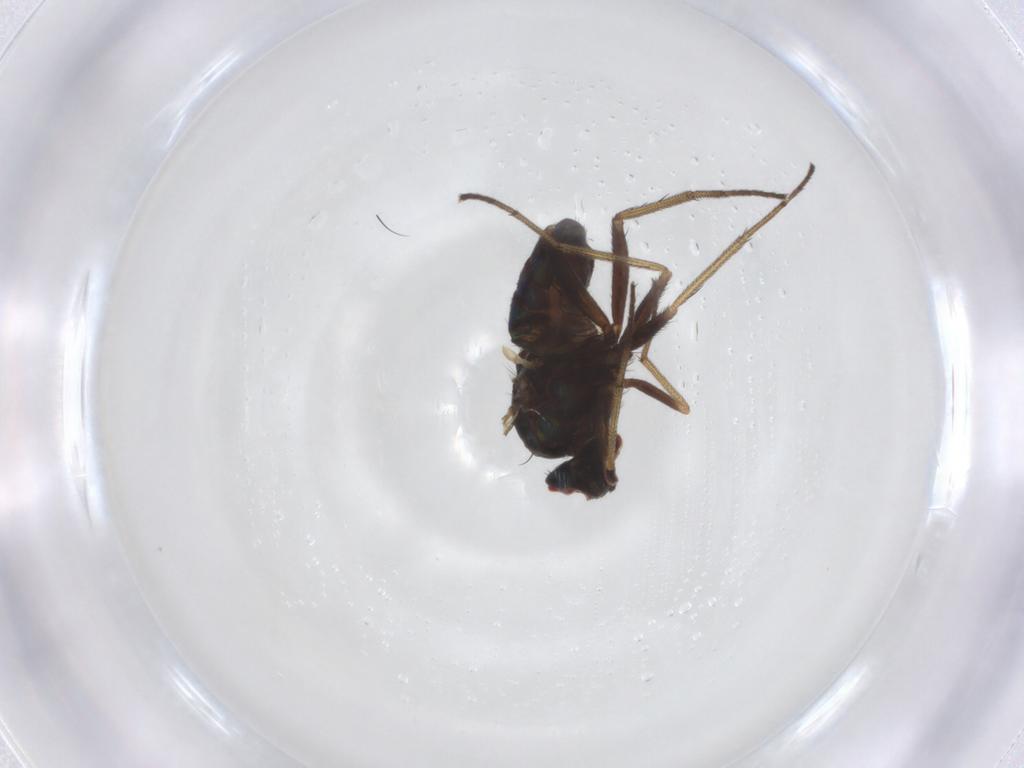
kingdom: Animalia
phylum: Arthropoda
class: Insecta
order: Diptera
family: Dolichopodidae
